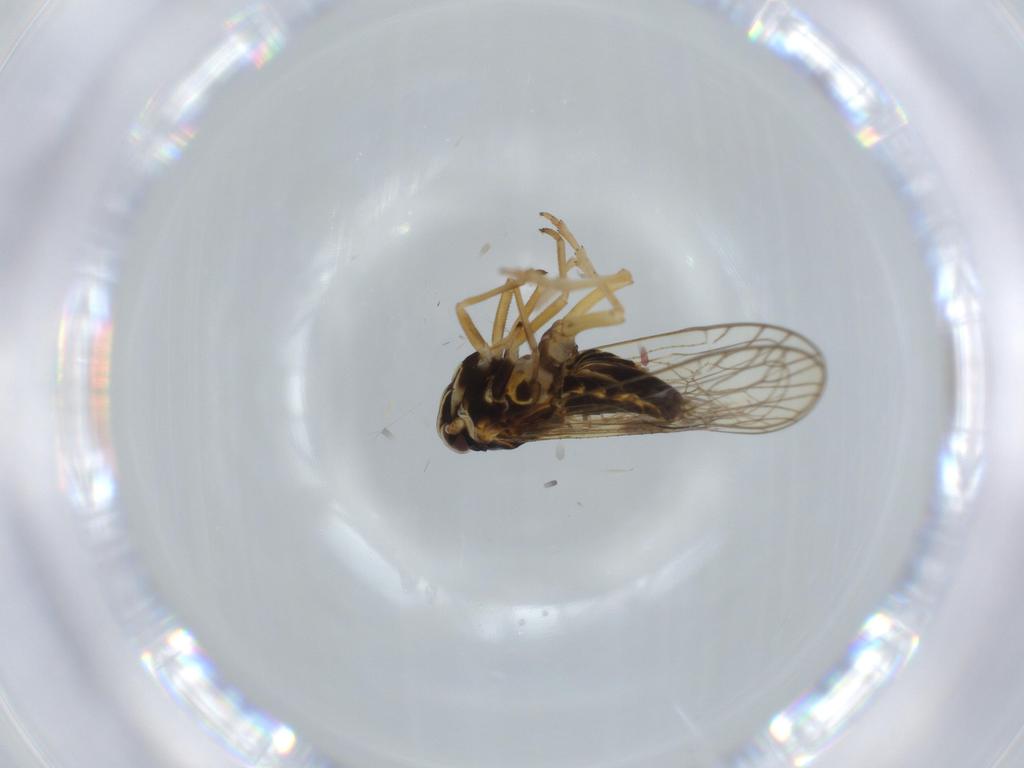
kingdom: Animalia
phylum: Arthropoda
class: Insecta
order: Hemiptera
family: Cicadellidae
